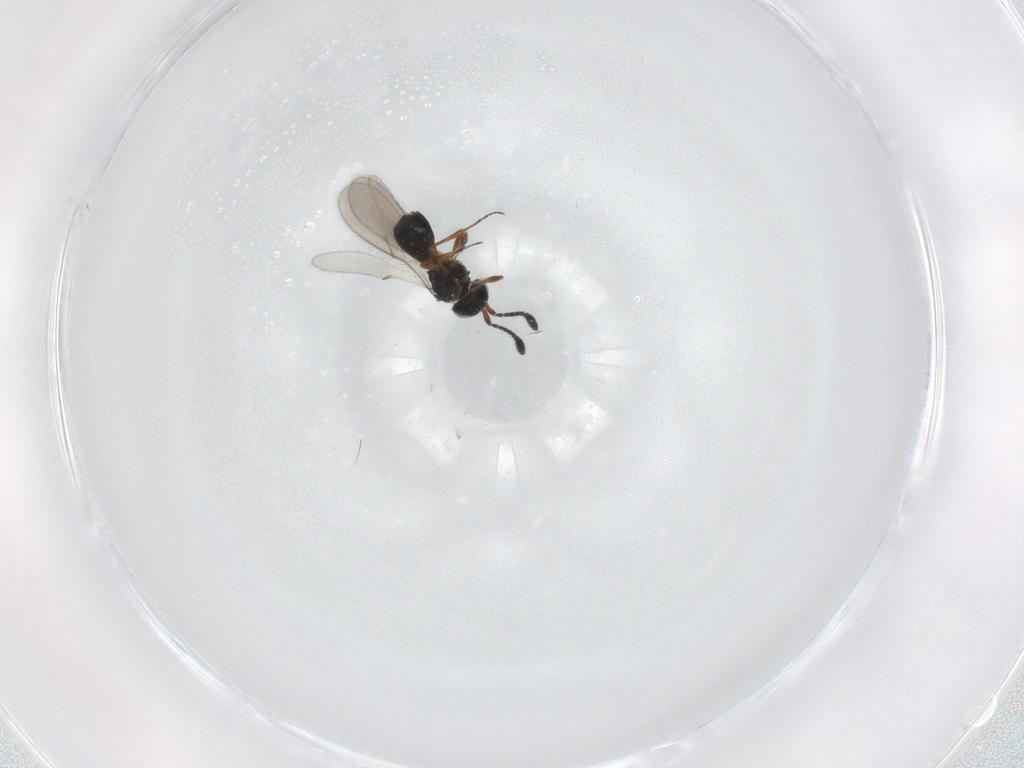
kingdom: Animalia
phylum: Arthropoda
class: Insecta
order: Hymenoptera
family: Scelionidae
